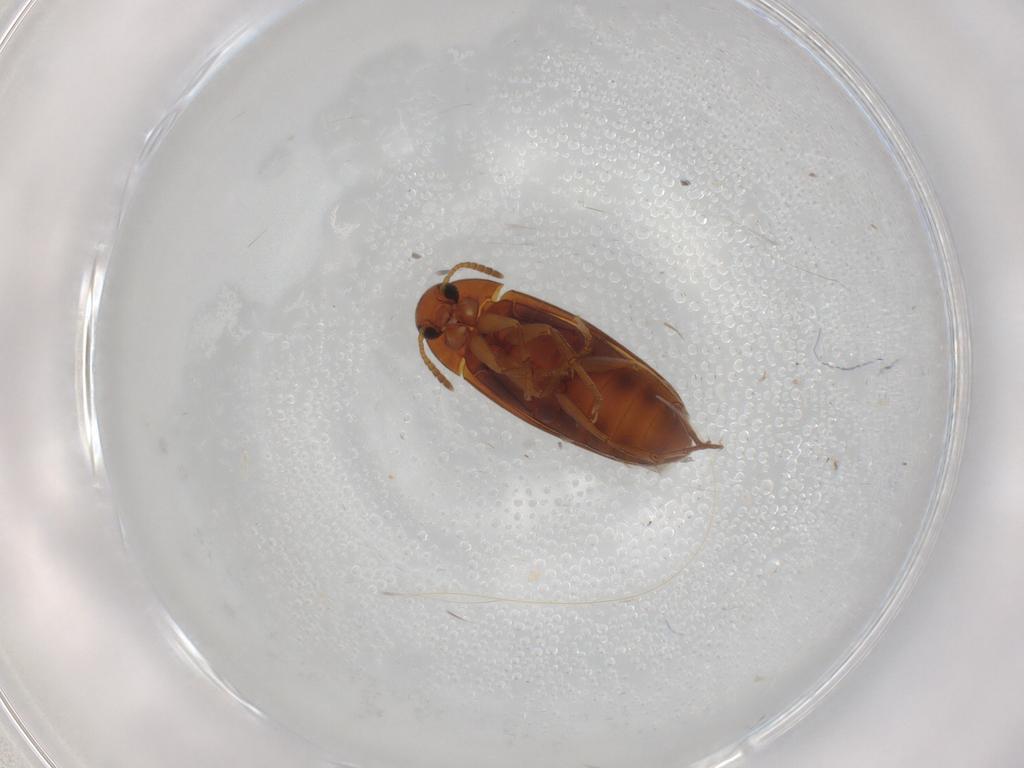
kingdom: Animalia
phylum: Arthropoda
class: Insecta
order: Coleoptera
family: Scraptiidae
